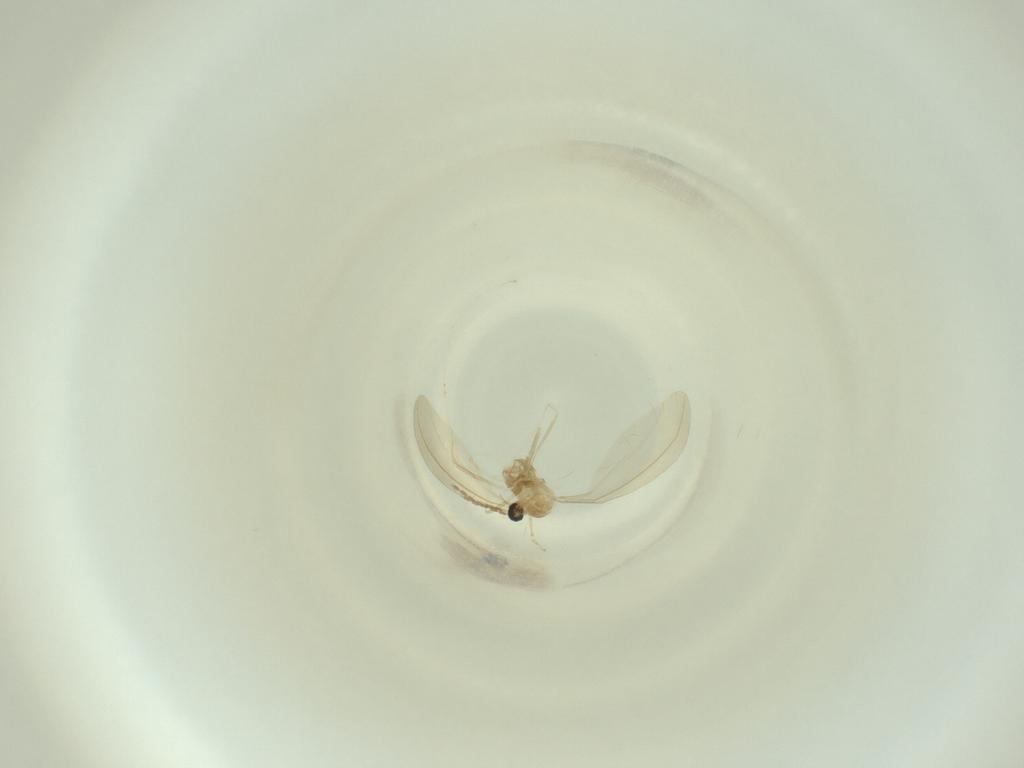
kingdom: Animalia
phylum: Arthropoda
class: Insecta
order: Diptera
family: Cecidomyiidae
